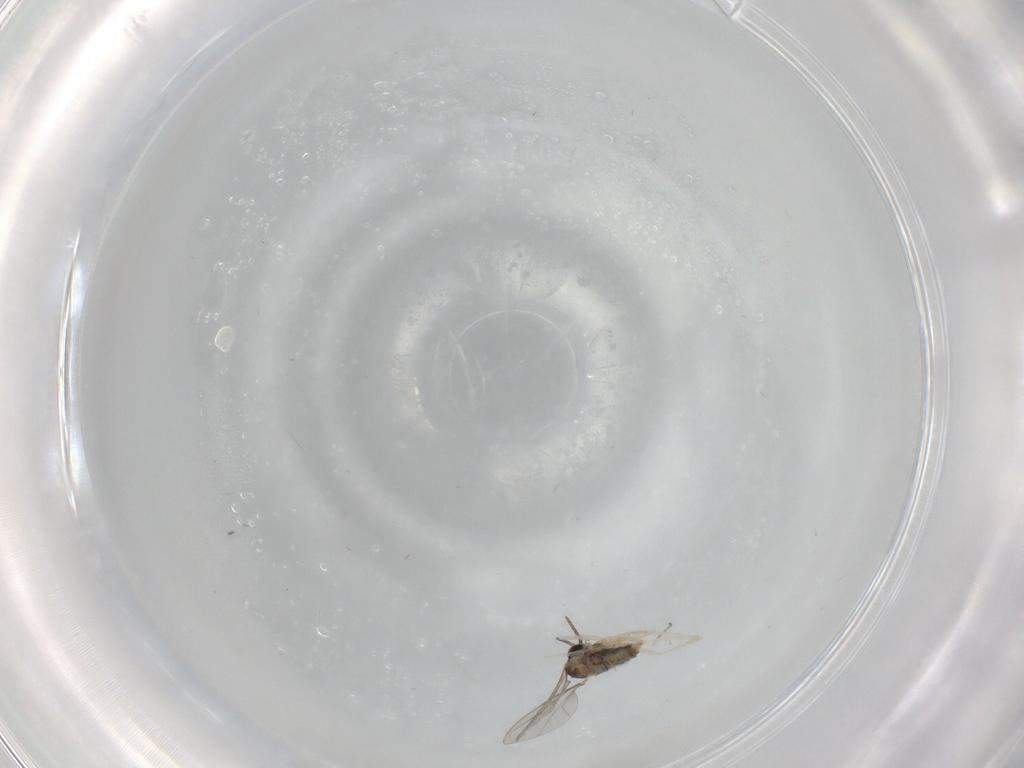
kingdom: Animalia
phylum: Arthropoda
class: Insecta
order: Diptera
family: Cecidomyiidae
